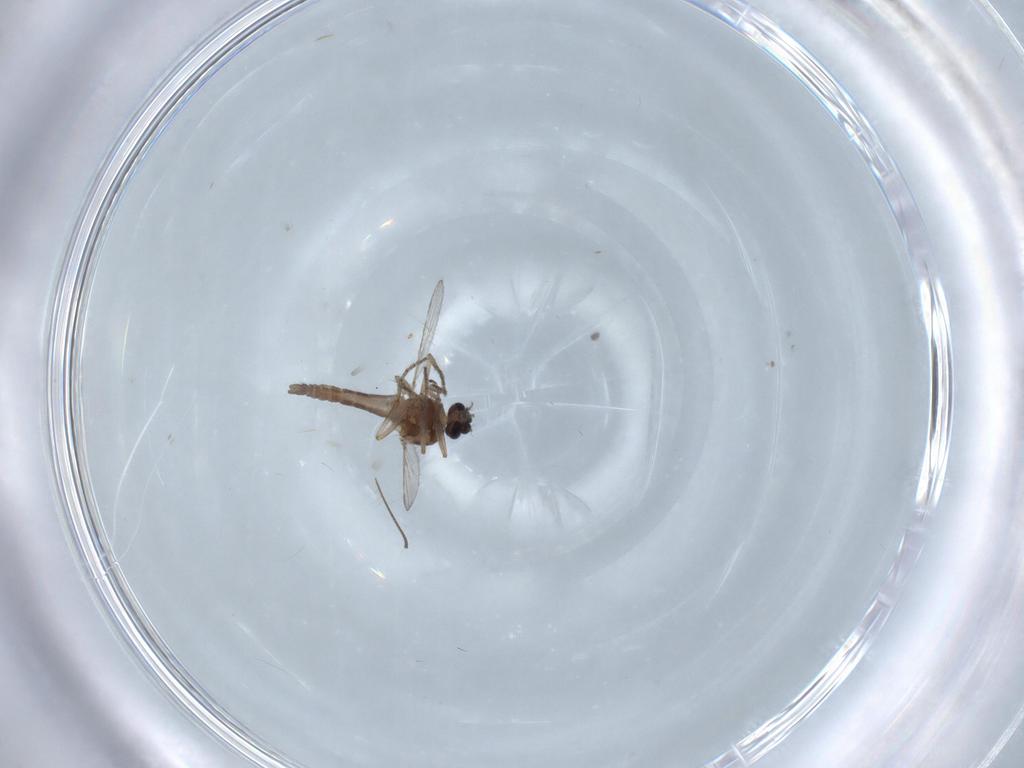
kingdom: Animalia
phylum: Arthropoda
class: Insecta
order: Diptera
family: Chironomidae
